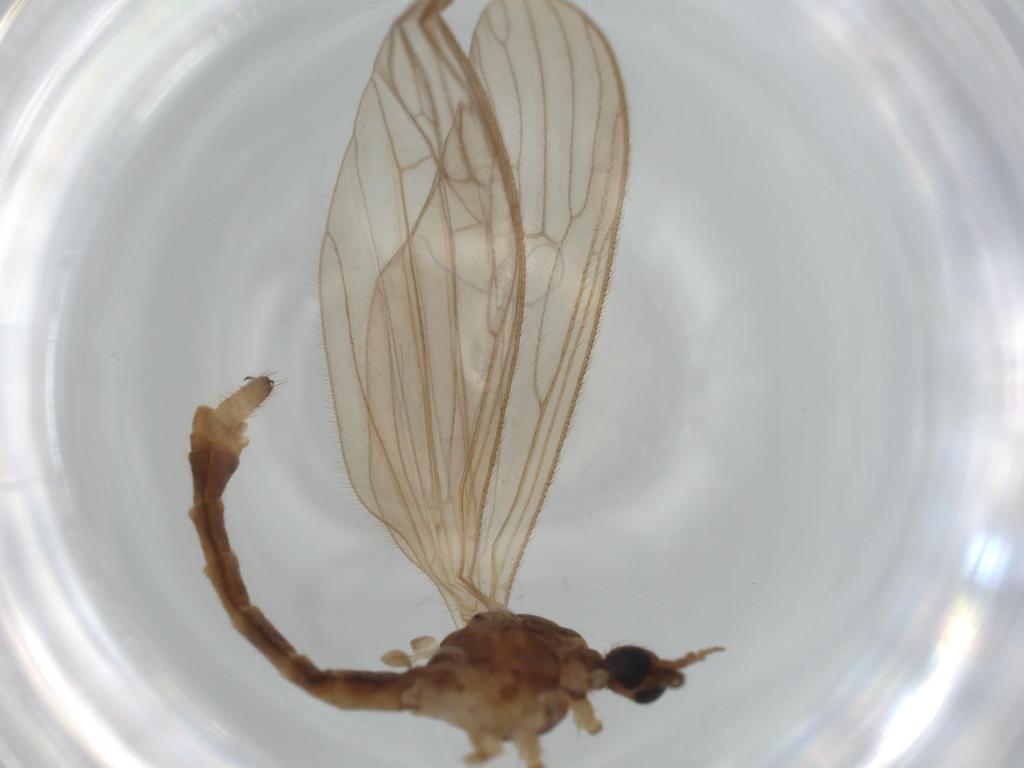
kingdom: Animalia
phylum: Arthropoda
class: Insecta
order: Diptera
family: Limoniidae
